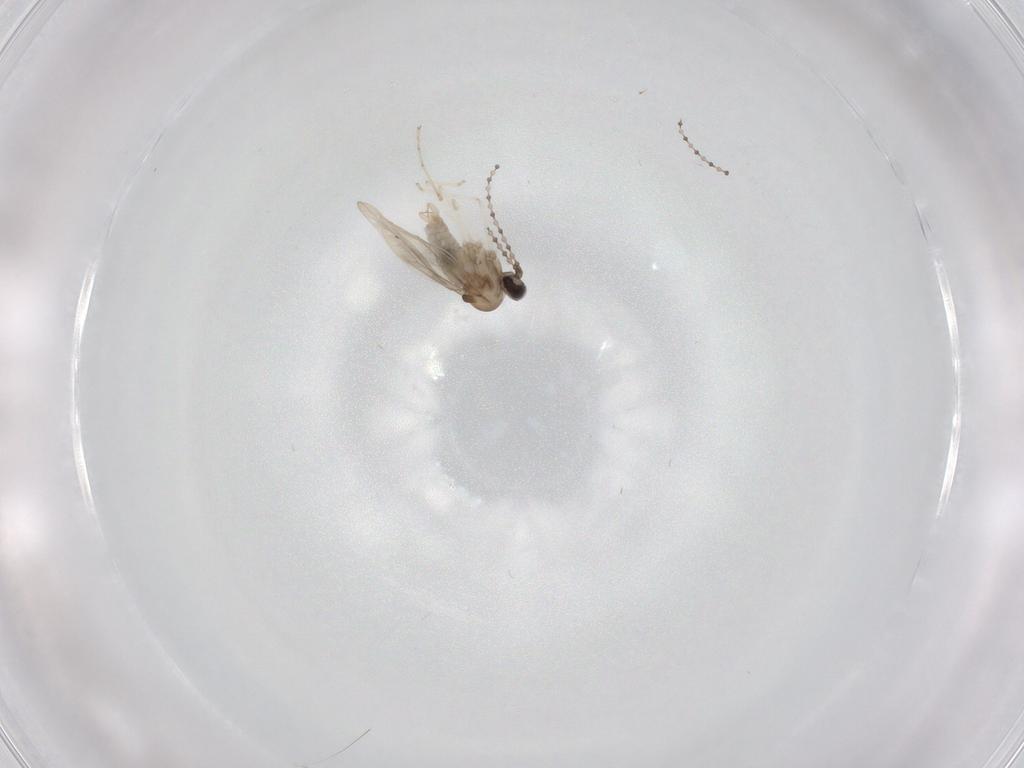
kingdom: Animalia
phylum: Arthropoda
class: Insecta
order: Diptera
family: Cecidomyiidae
